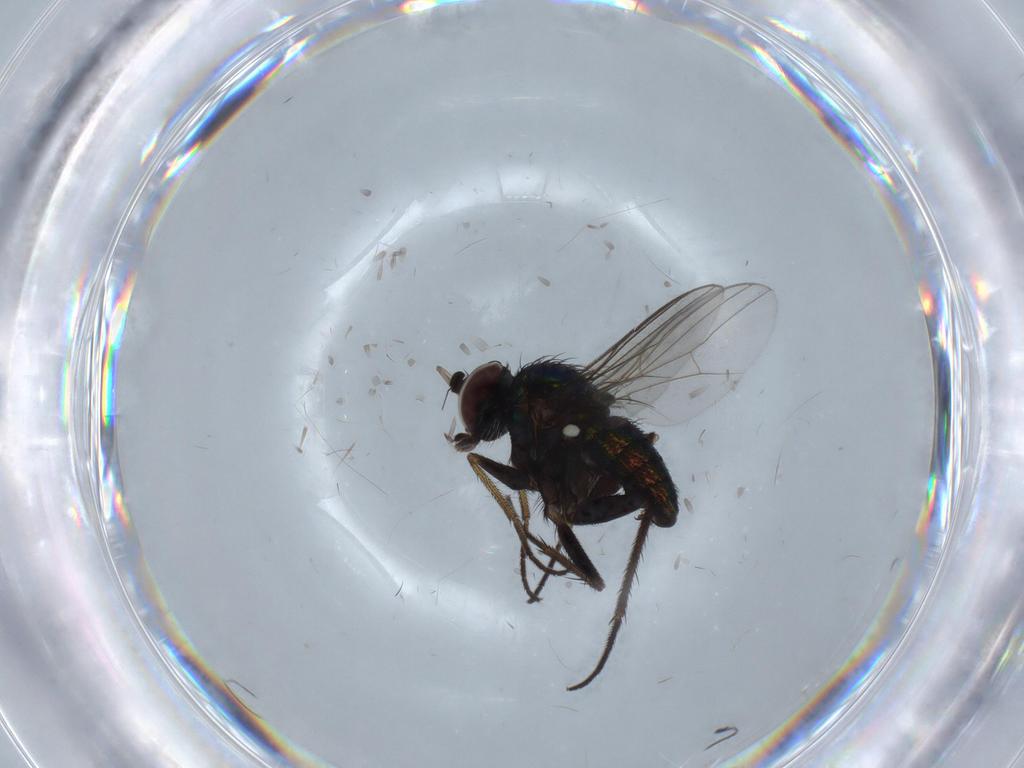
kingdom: Animalia
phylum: Arthropoda
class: Insecta
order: Diptera
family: Dolichopodidae
